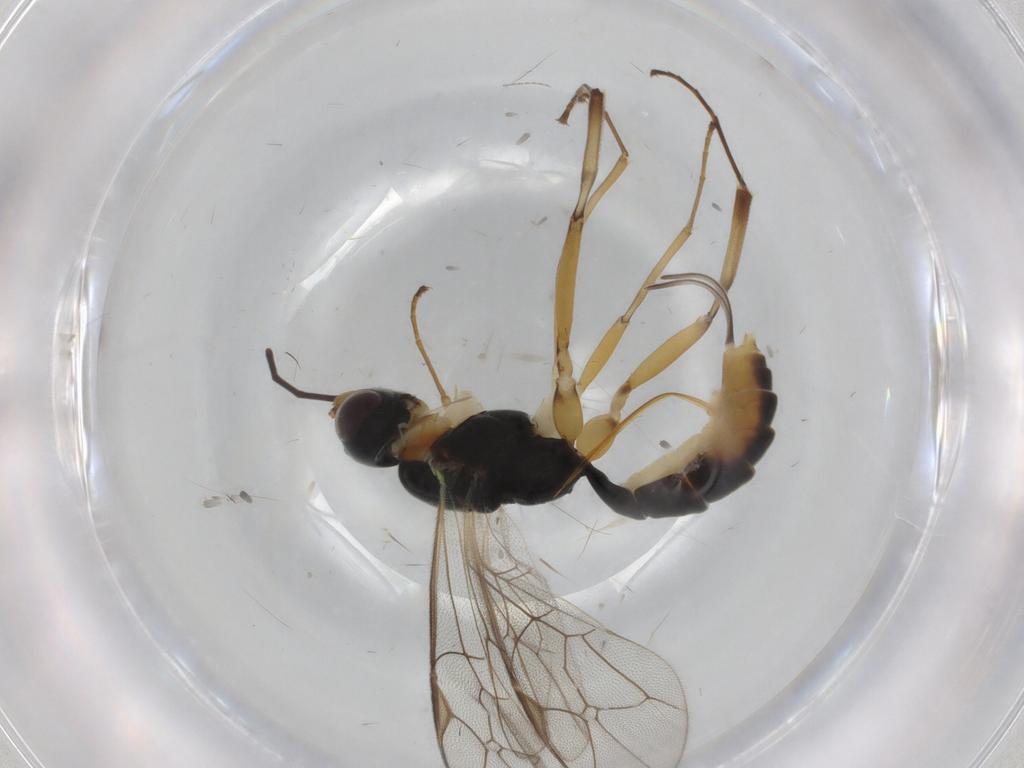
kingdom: Animalia
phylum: Arthropoda
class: Insecta
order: Hymenoptera
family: Ichneumonidae
